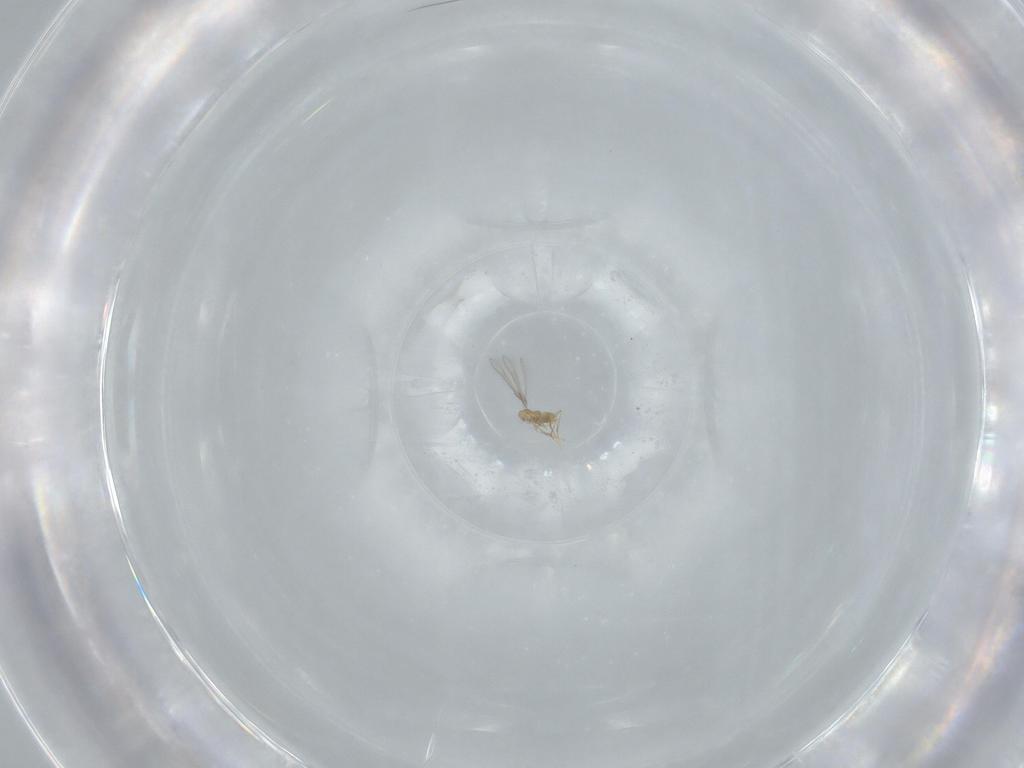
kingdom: Animalia
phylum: Arthropoda
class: Insecta
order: Hymenoptera
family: Mymaridae
